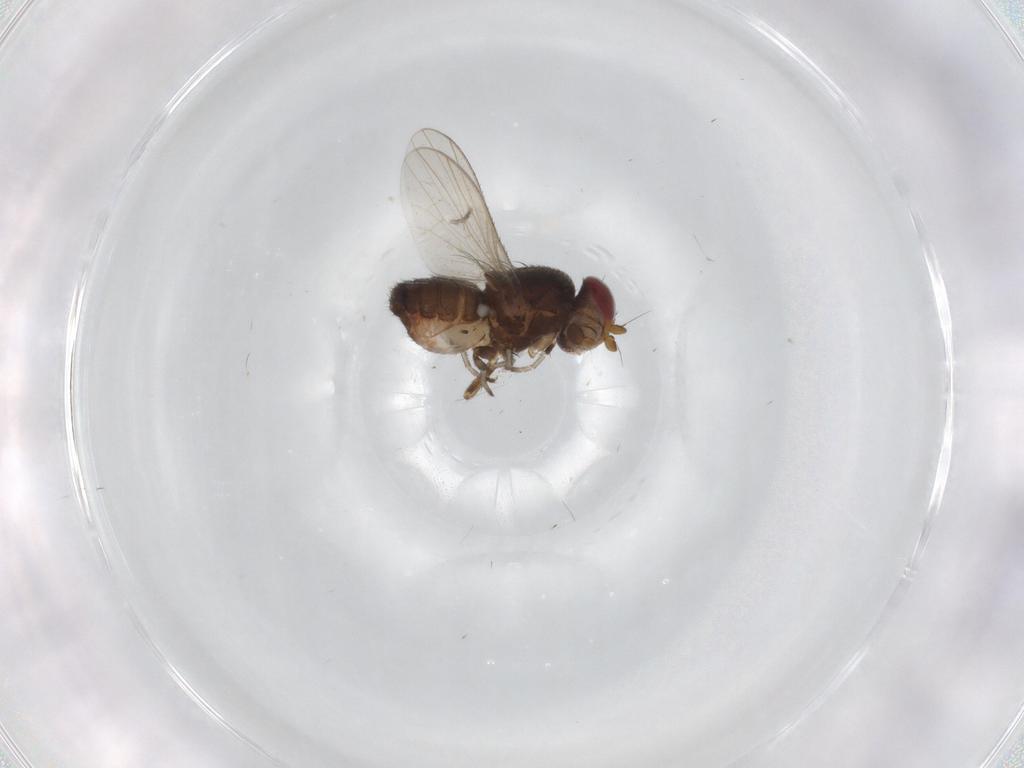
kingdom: Animalia
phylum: Arthropoda
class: Insecta
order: Diptera
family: Heleomyzidae
